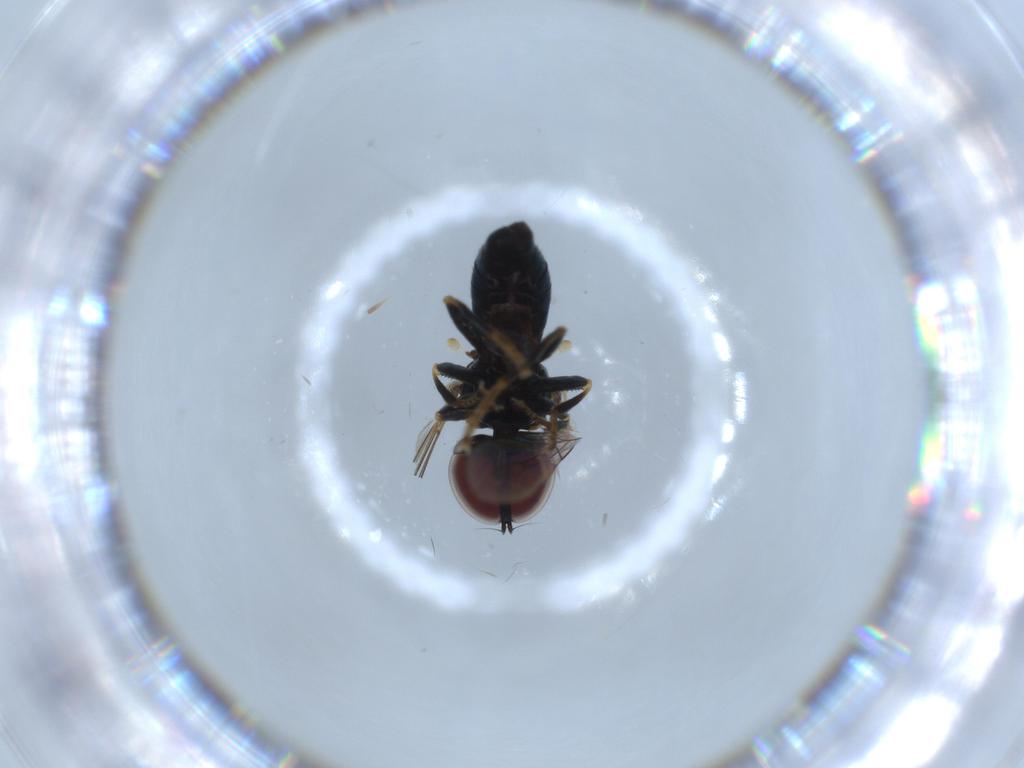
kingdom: Animalia
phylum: Arthropoda
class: Insecta
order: Diptera
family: Pipunculidae
